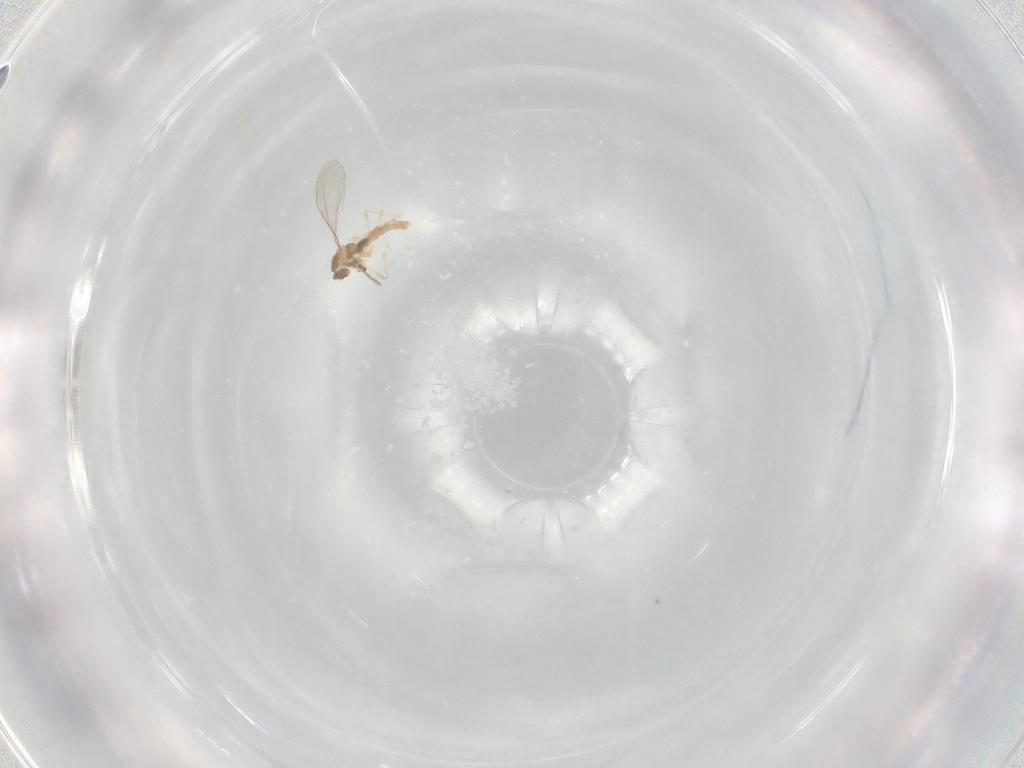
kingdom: Animalia
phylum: Arthropoda
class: Insecta
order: Diptera
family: Cecidomyiidae
